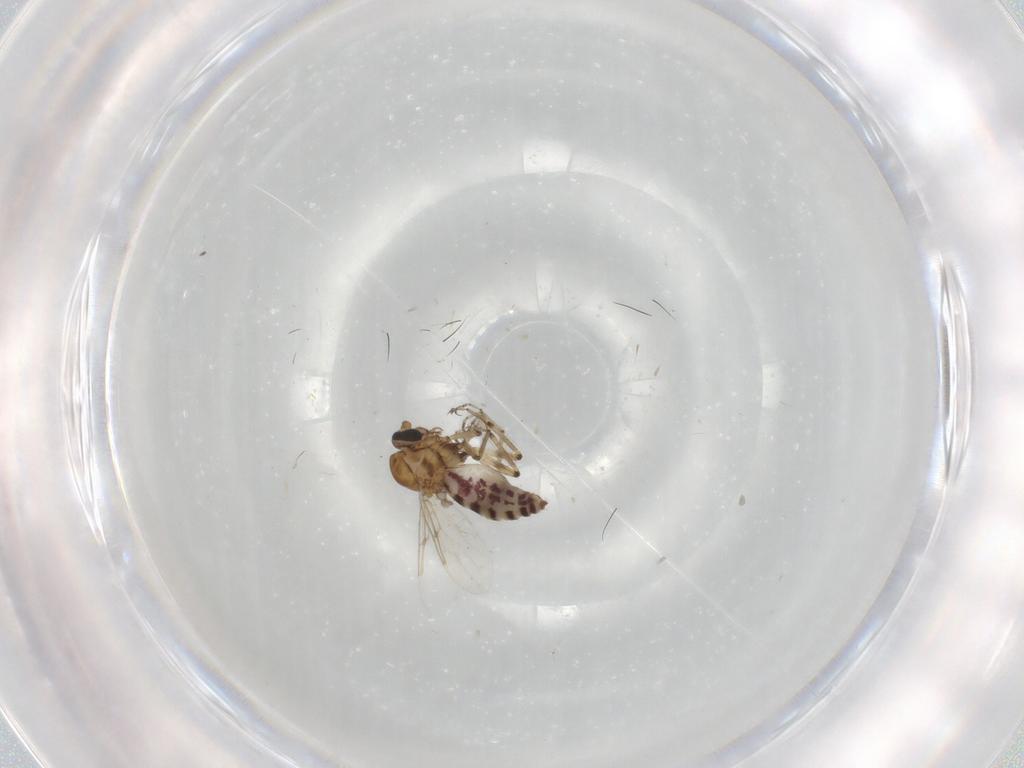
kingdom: Animalia
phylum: Arthropoda
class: Insecta
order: Diptera
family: Ceratopogonidae
